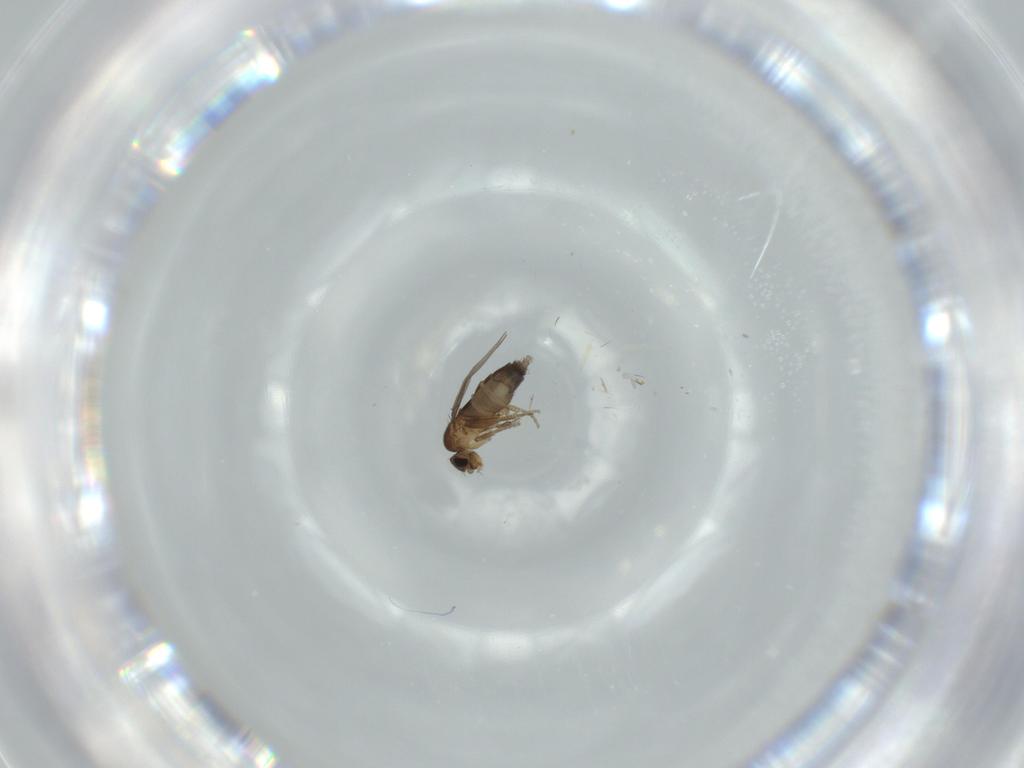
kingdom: Animalia
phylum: Arthropoda
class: Insecta
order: Diptera
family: Phoridae
